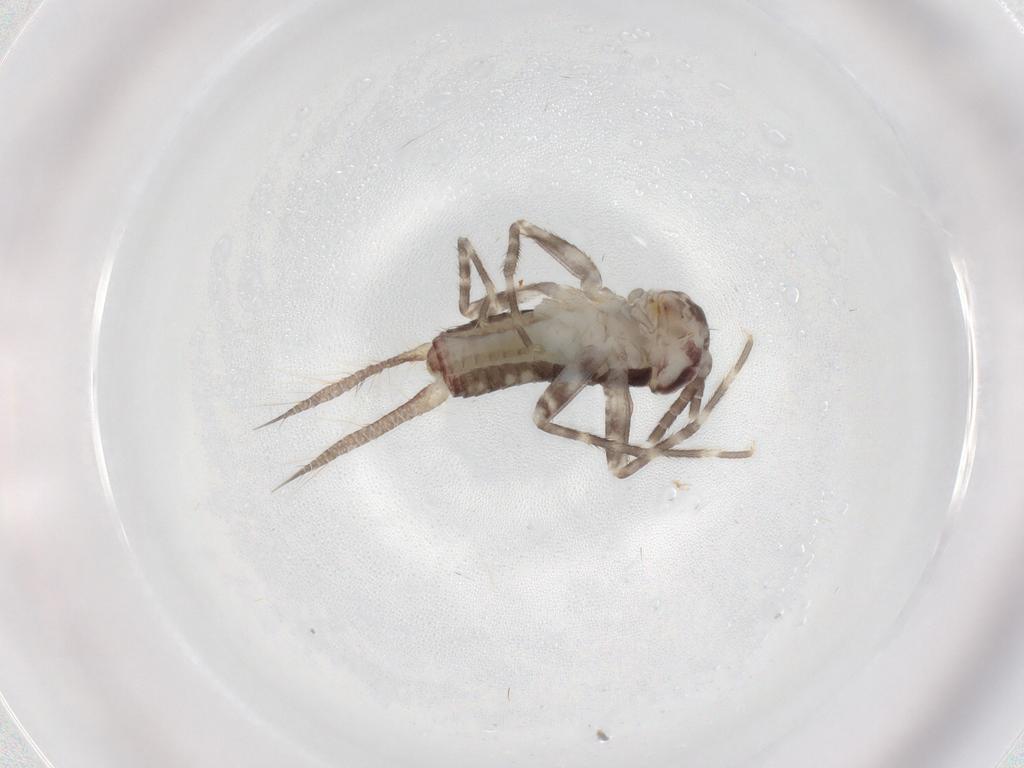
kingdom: Animalia
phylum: Arthropoda
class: Insecta
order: Orthoptera
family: Gryllidae
